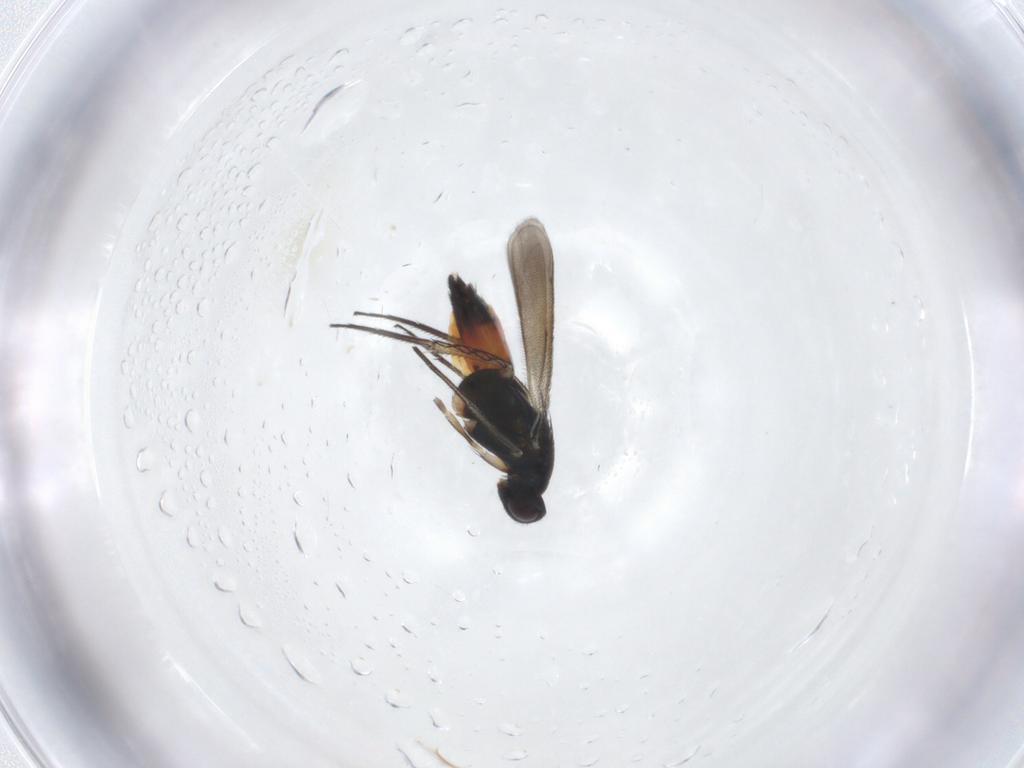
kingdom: Animalia
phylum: Arthropoda
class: Insecta
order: Hymenoptera
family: Eulophidae
